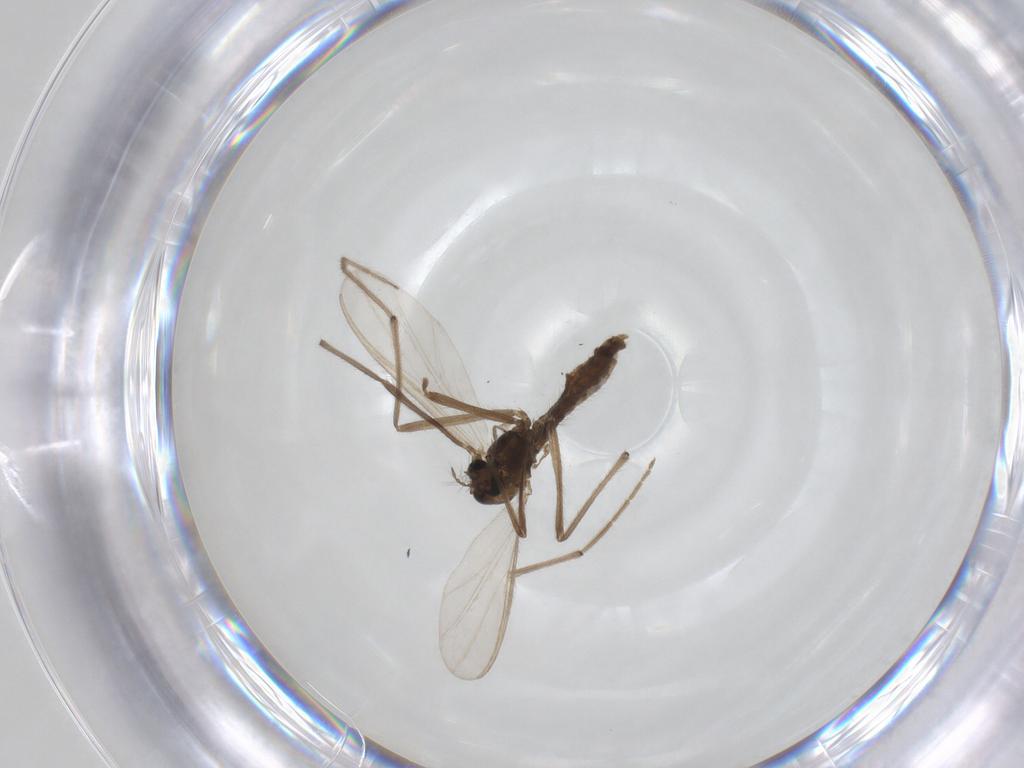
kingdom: Animalia
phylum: Arthropoda
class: Insecta
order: Diptera
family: Chironomidae
